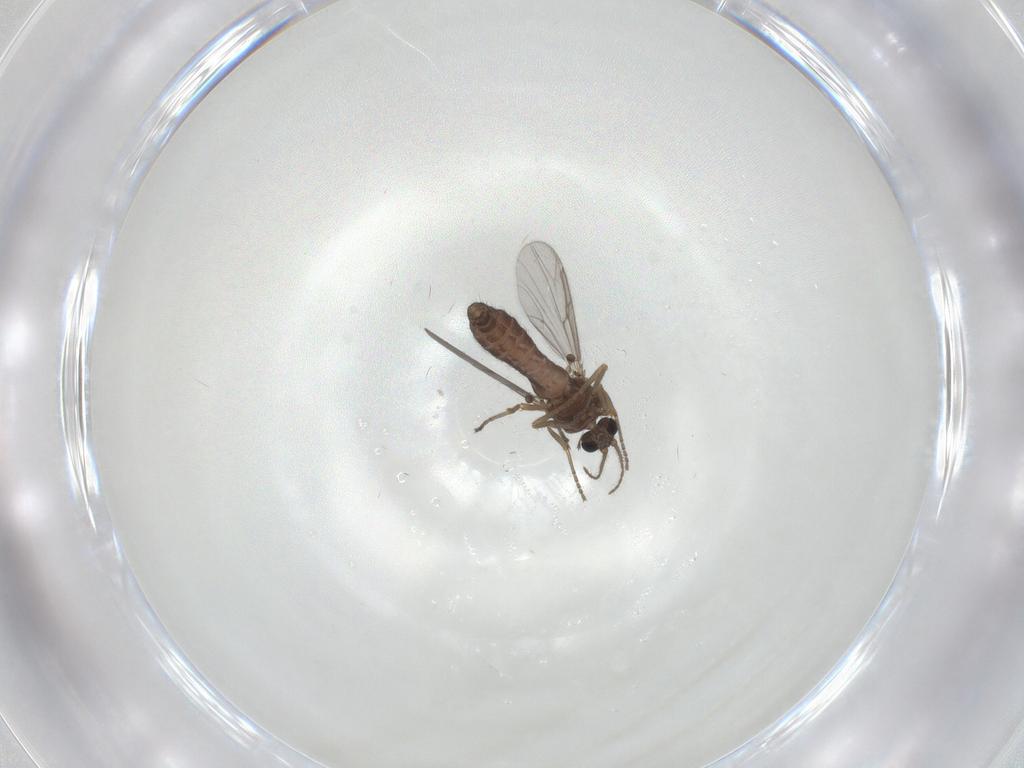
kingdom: Animalia
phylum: Arthropoda
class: Insecta
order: Diptera
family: Ceratopogonidae
